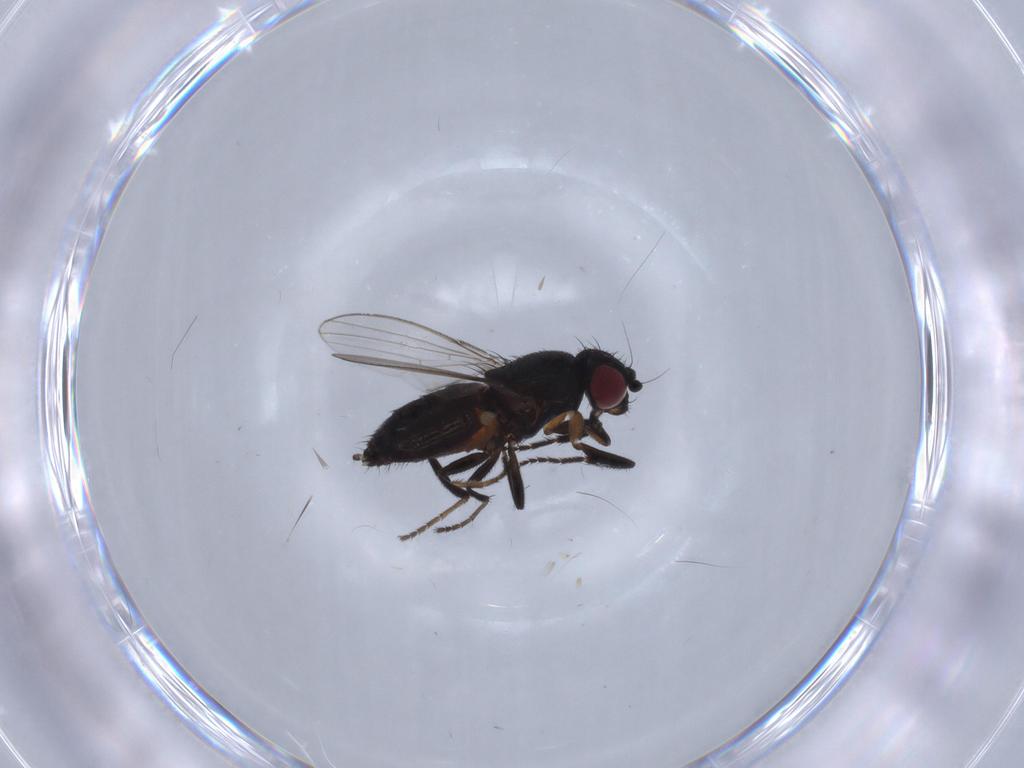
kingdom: Animalia
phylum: Arthropoda
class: Insecta
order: Diptera
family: Milichiidae
